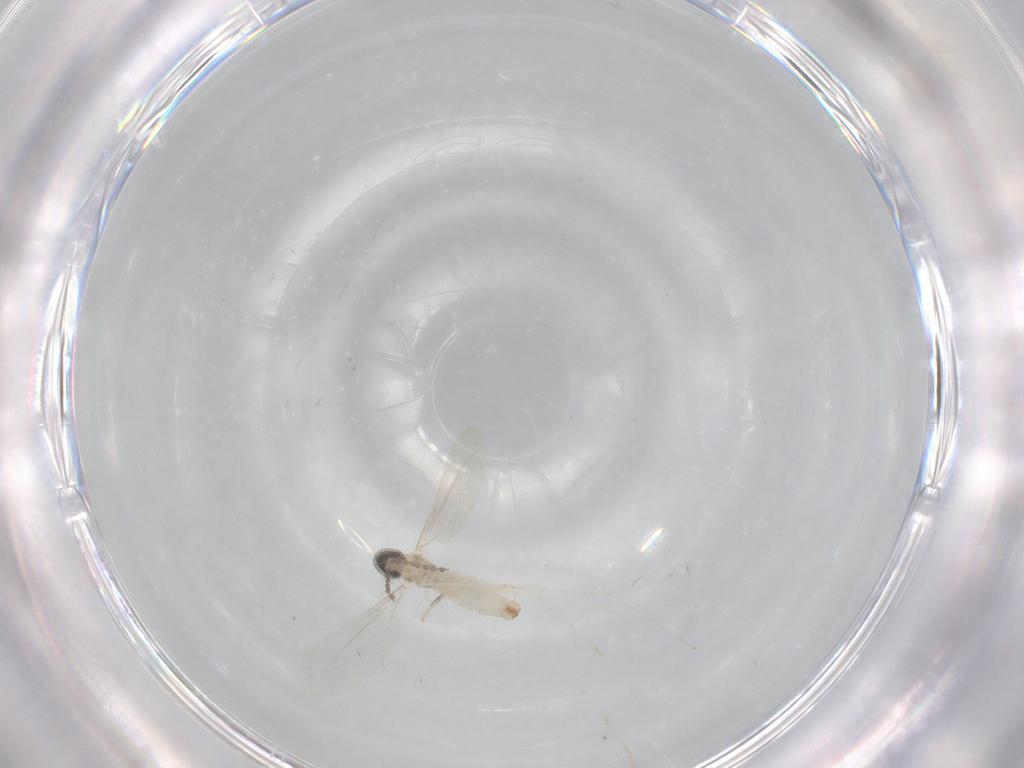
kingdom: Animalia
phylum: Arthropoda
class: Insecta
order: Diptera
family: Cecidomyiidae
